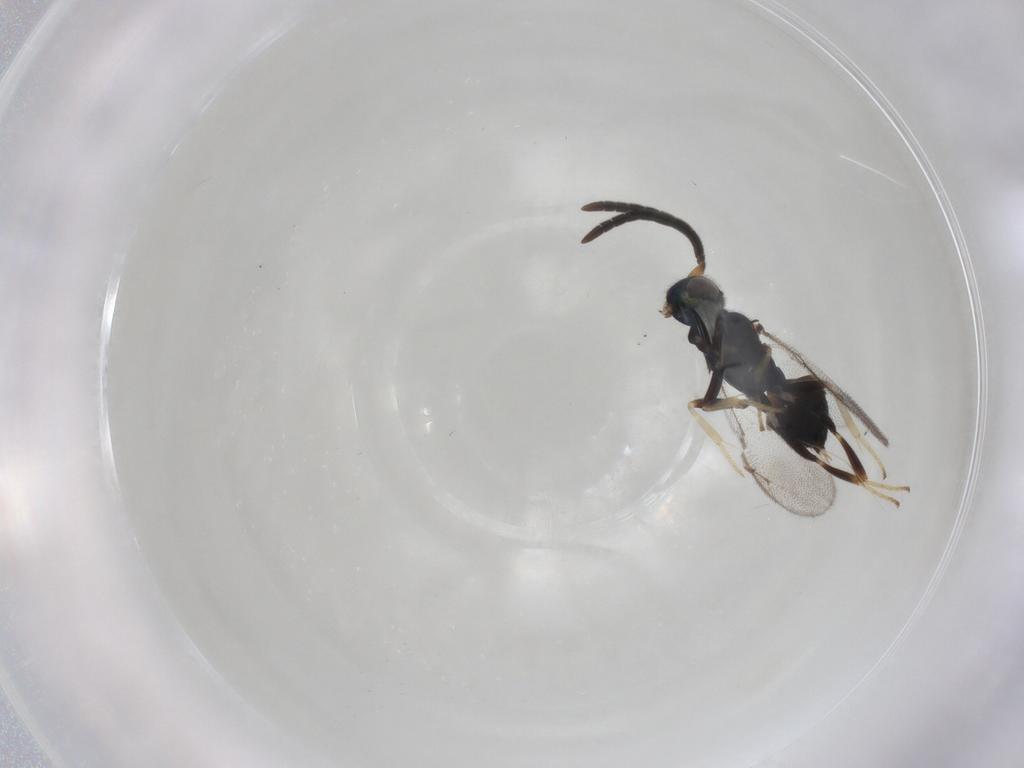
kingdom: Animalia
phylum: Arthropoda
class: Insecta
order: Hymenoptera
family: Eupelmidae
